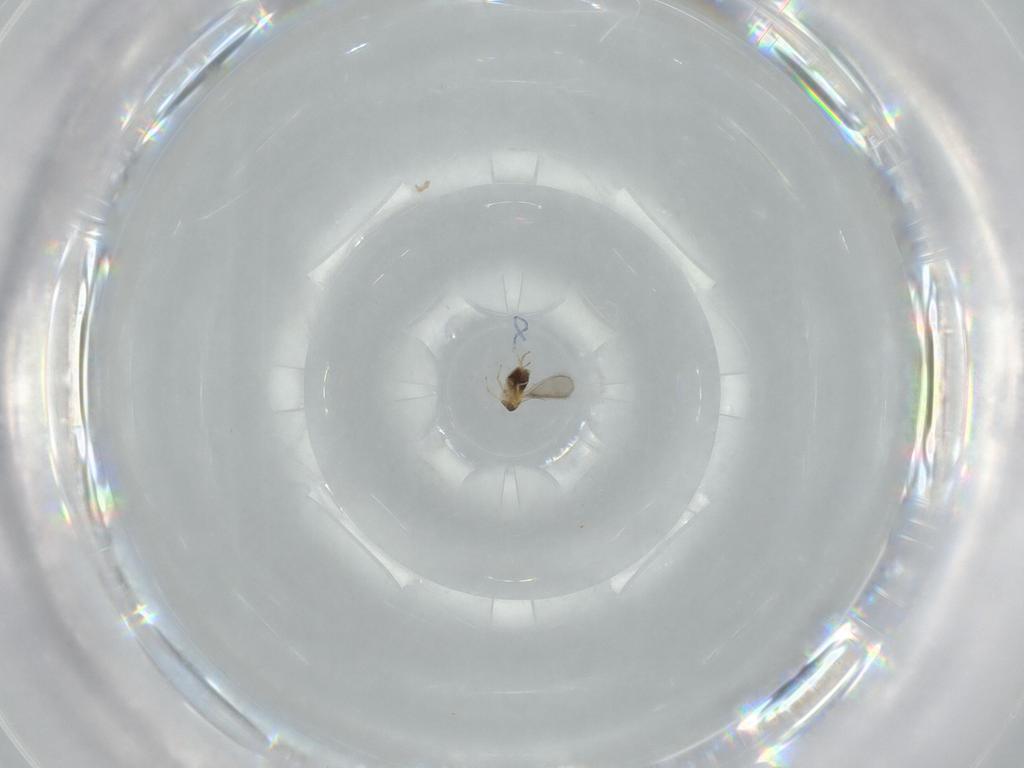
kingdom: Animalia
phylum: Arthropoda
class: Insecta
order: Hymenoptera
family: Aphelinidae
